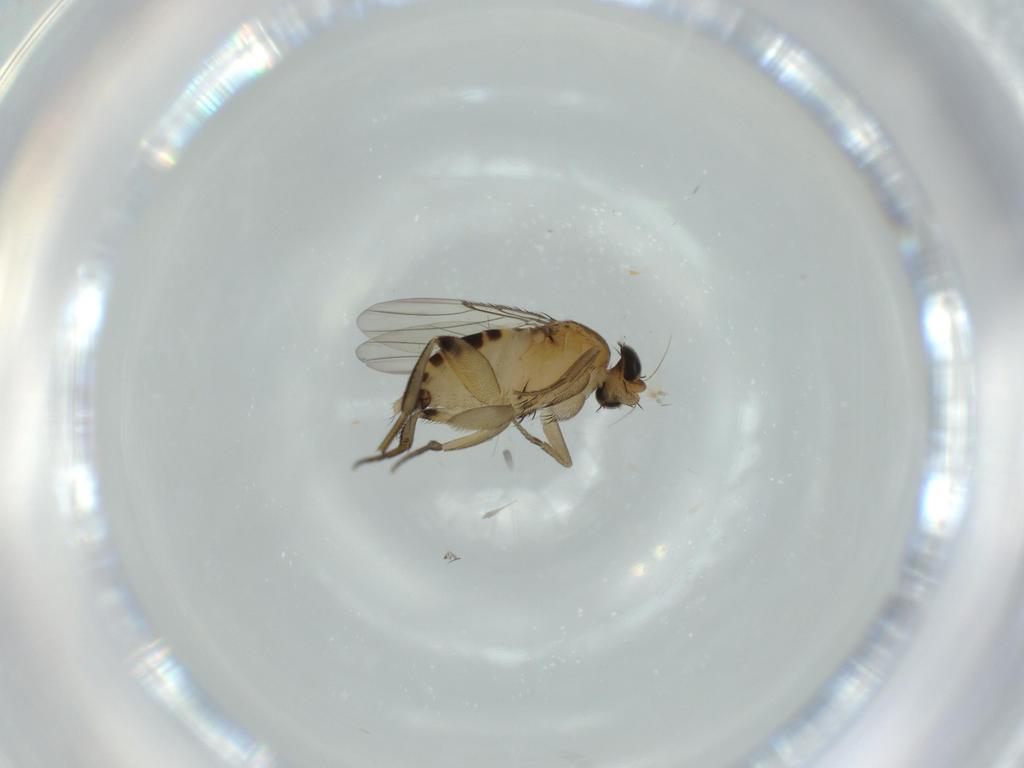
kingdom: Animalia
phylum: Arthropoda
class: Insecta
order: Diptera
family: Phoridae
